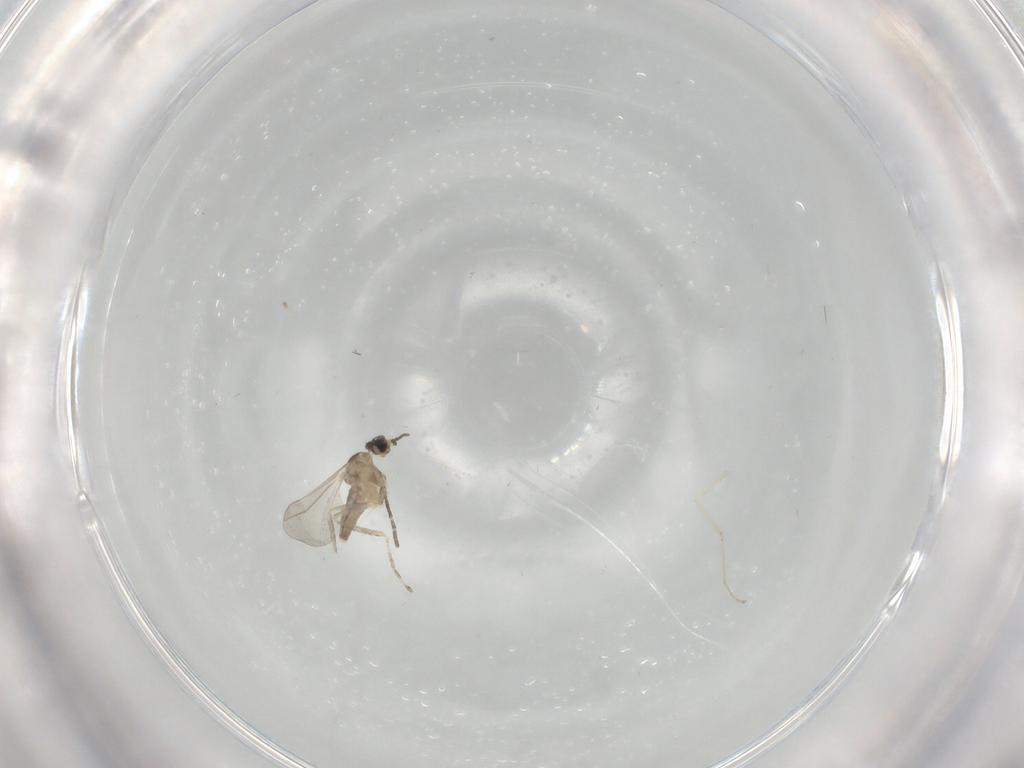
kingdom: Animalia
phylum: Arthropoda
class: Insecta
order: Diptera
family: Cecidomyiidae
